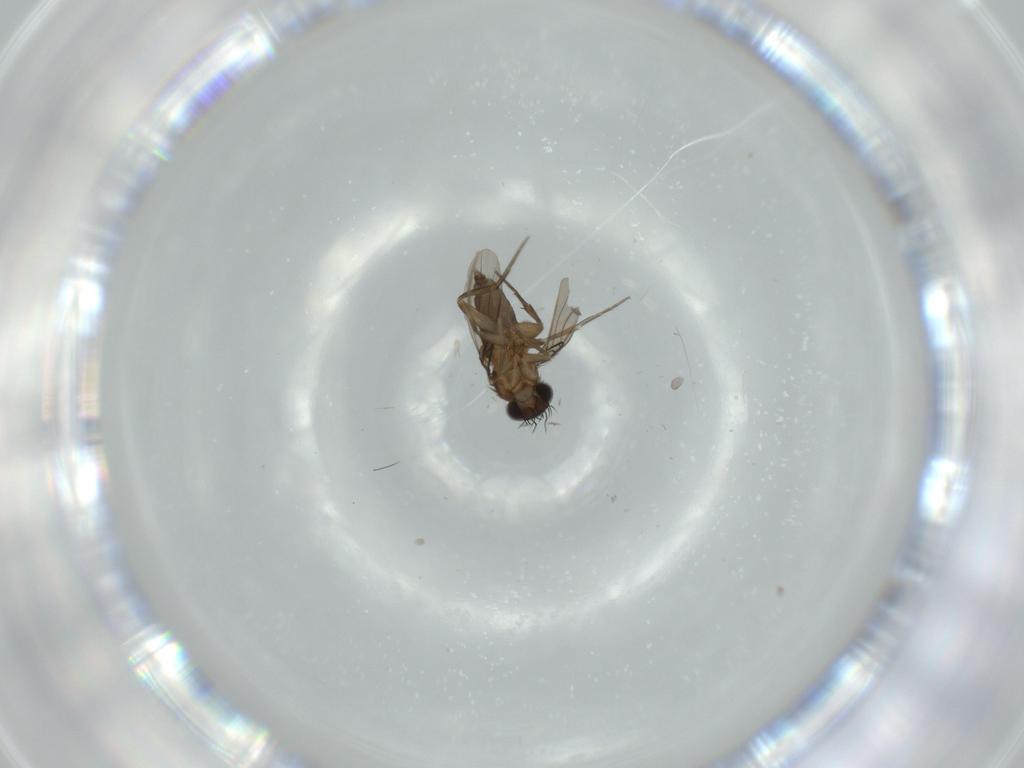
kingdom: Animalia
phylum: Arthropoda
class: Insecta
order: Diptera
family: Phoridae
